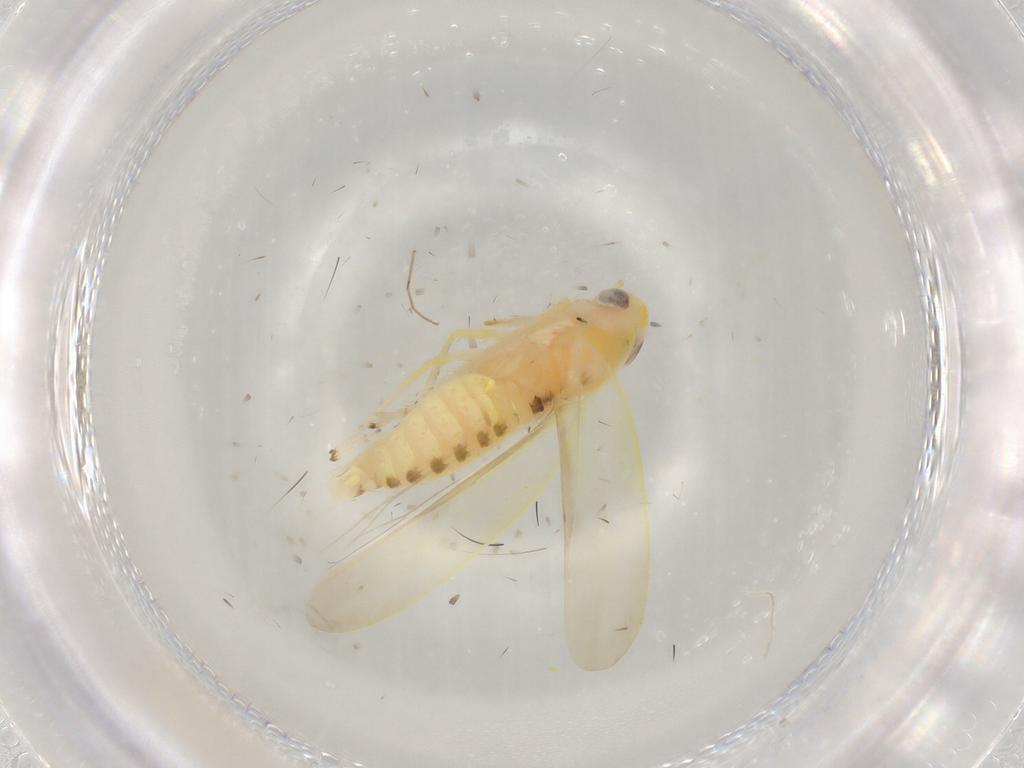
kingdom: Animalia
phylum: Arthropoda
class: Insecta
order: Hemiptera
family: Cicadellidae
